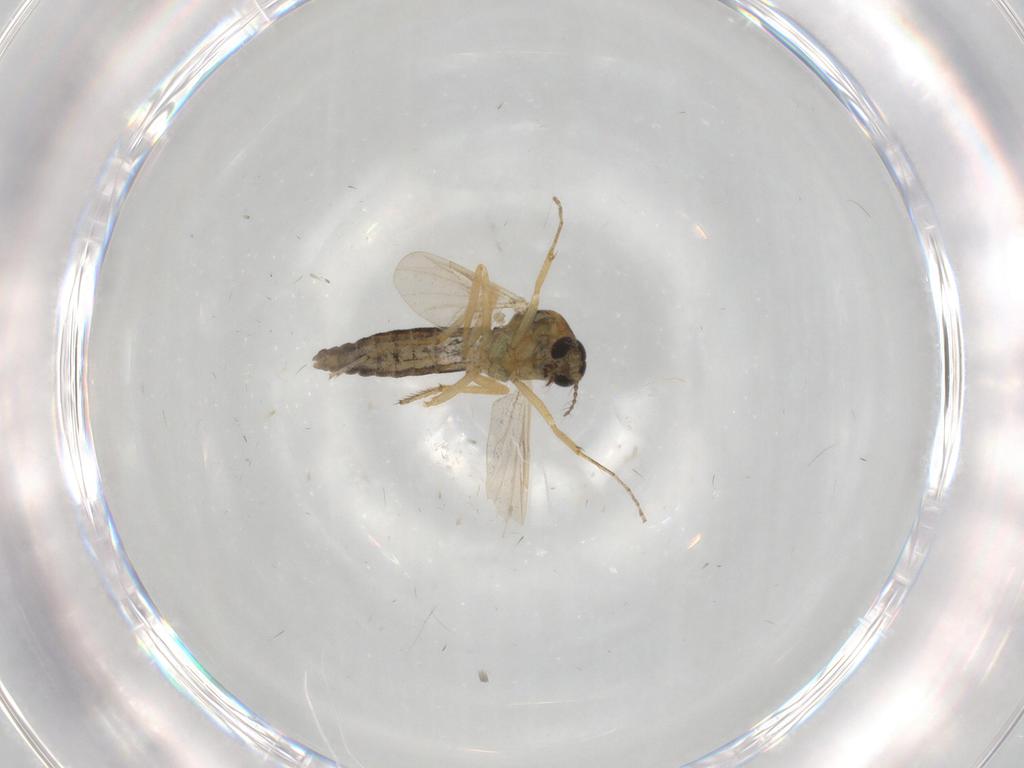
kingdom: Animalia
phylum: Arthropoda
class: Insecta
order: Diptera
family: Ceratopogonidae
